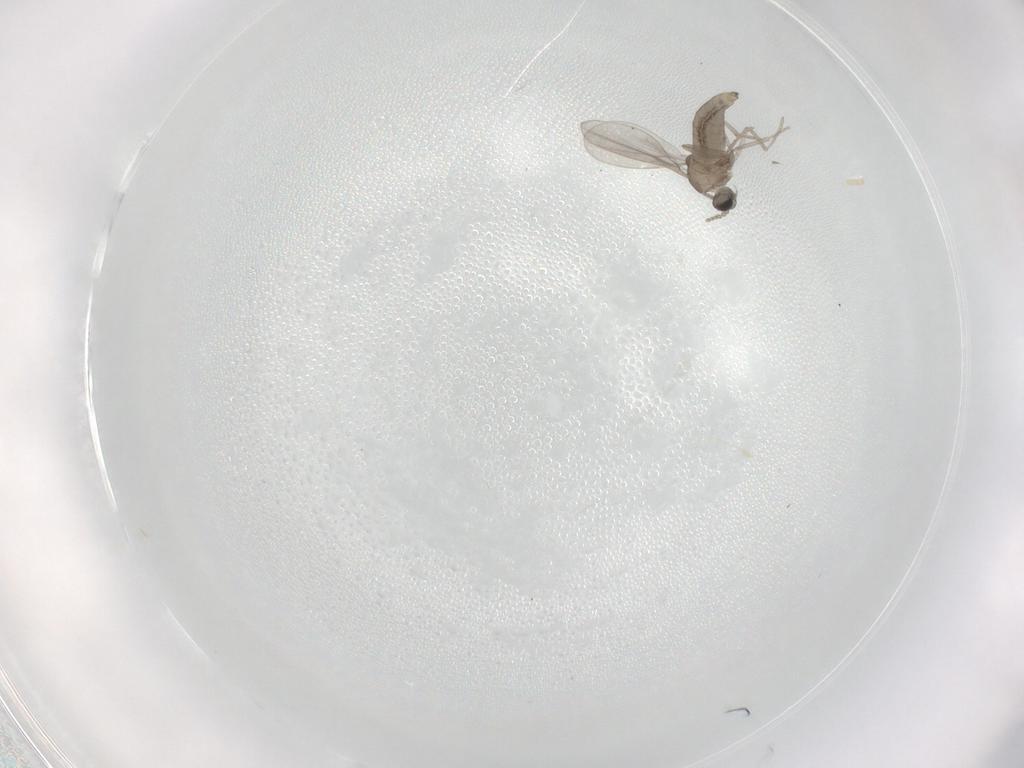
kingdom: Animalia
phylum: Arthropoda
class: Insecta
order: Diptera
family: Cecidomyiidae
